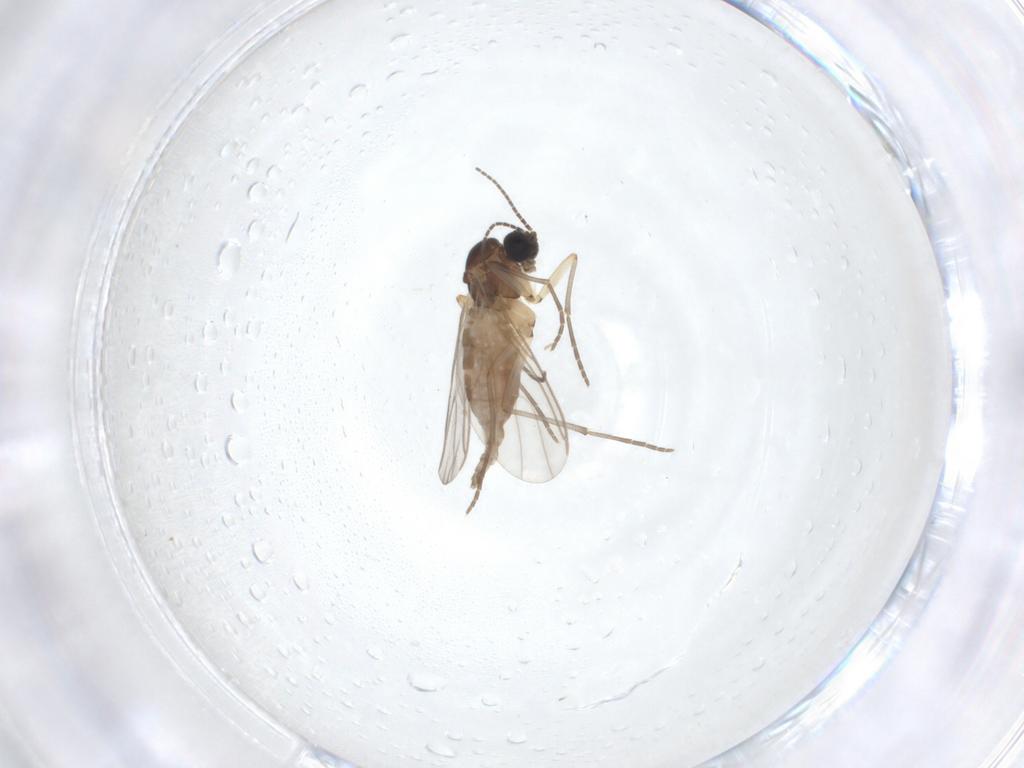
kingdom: Animalia
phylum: Arthropoda
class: Insecta
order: Diptera
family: Sciaridae
